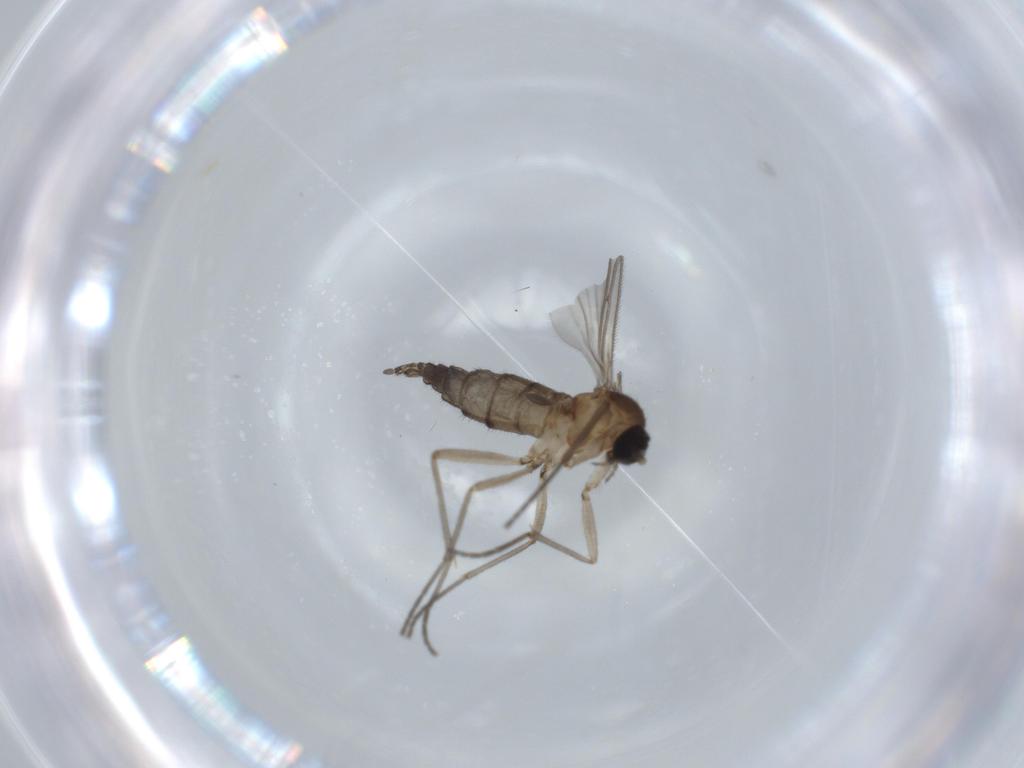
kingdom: Animalia
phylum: Arthropoda
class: Insecta
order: Diptera
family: Sciaridae
